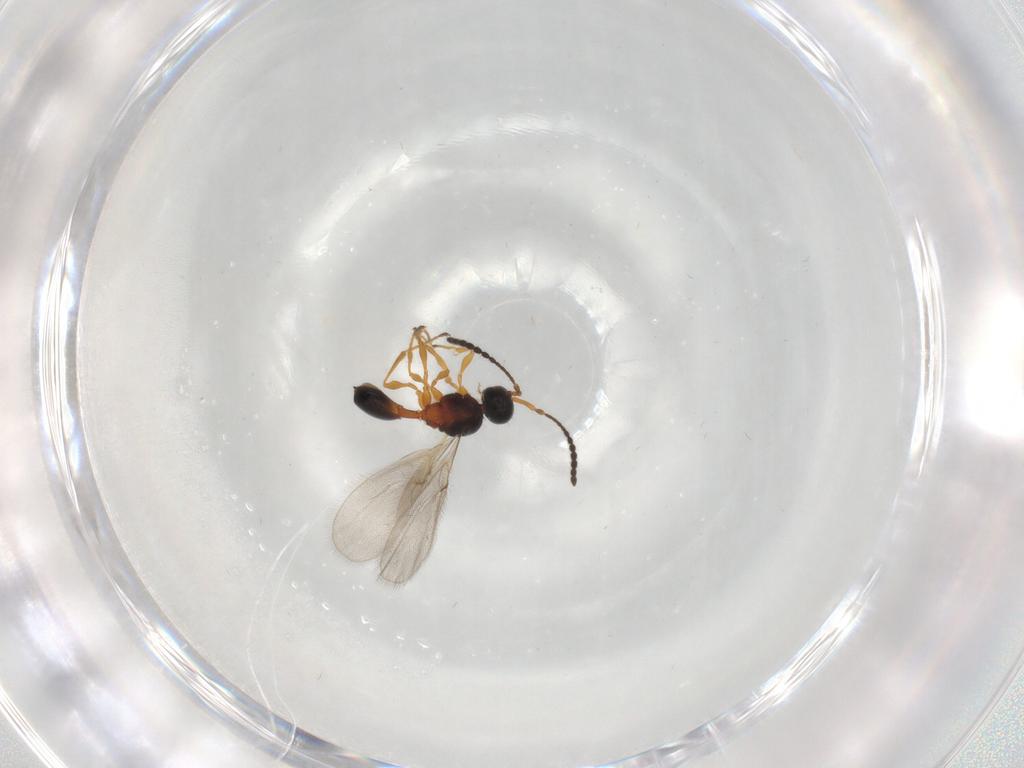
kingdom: Animalia
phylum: Arthropoda
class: Insecta
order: Hymenoptera
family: Diapriidae
